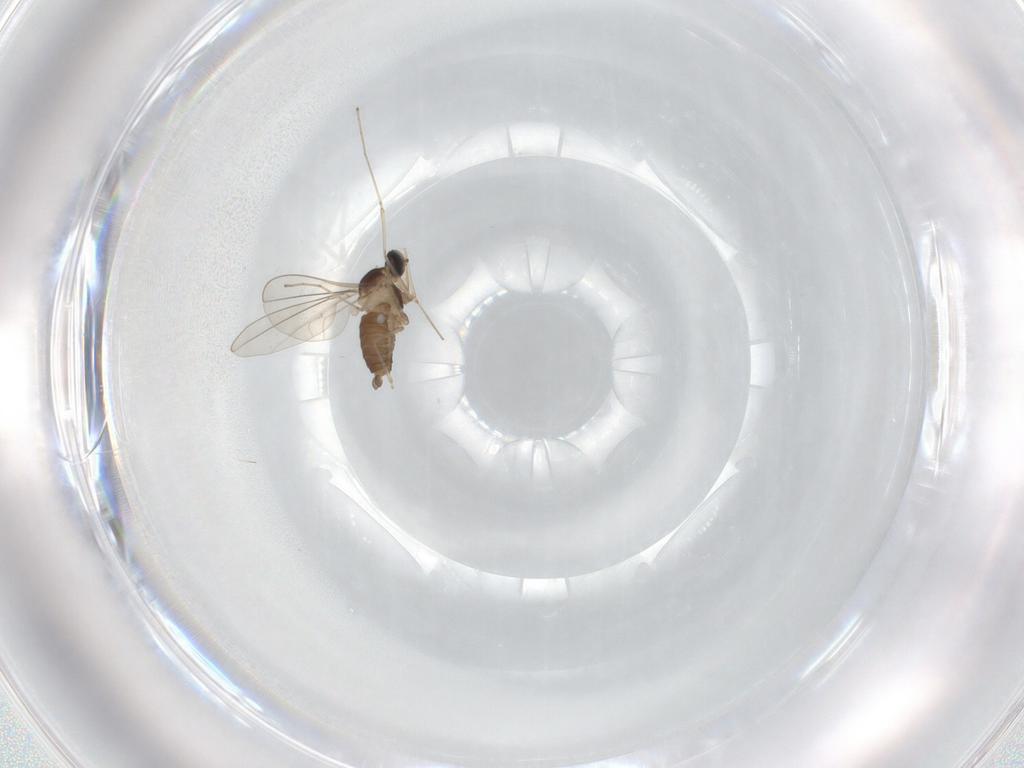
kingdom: Animalia
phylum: Arthropoda
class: Insecta
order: Diptera
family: Cecidomyiidae
